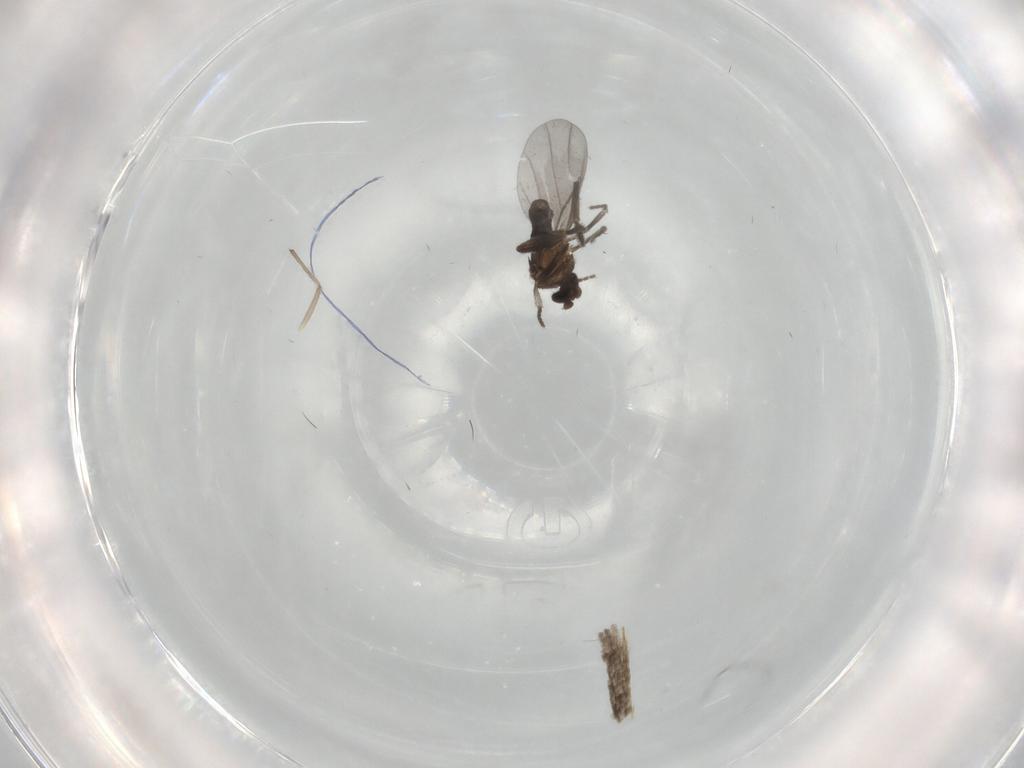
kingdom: Animalia
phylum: Arthropoda
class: Insecta
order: Diptera
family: Phoridae
